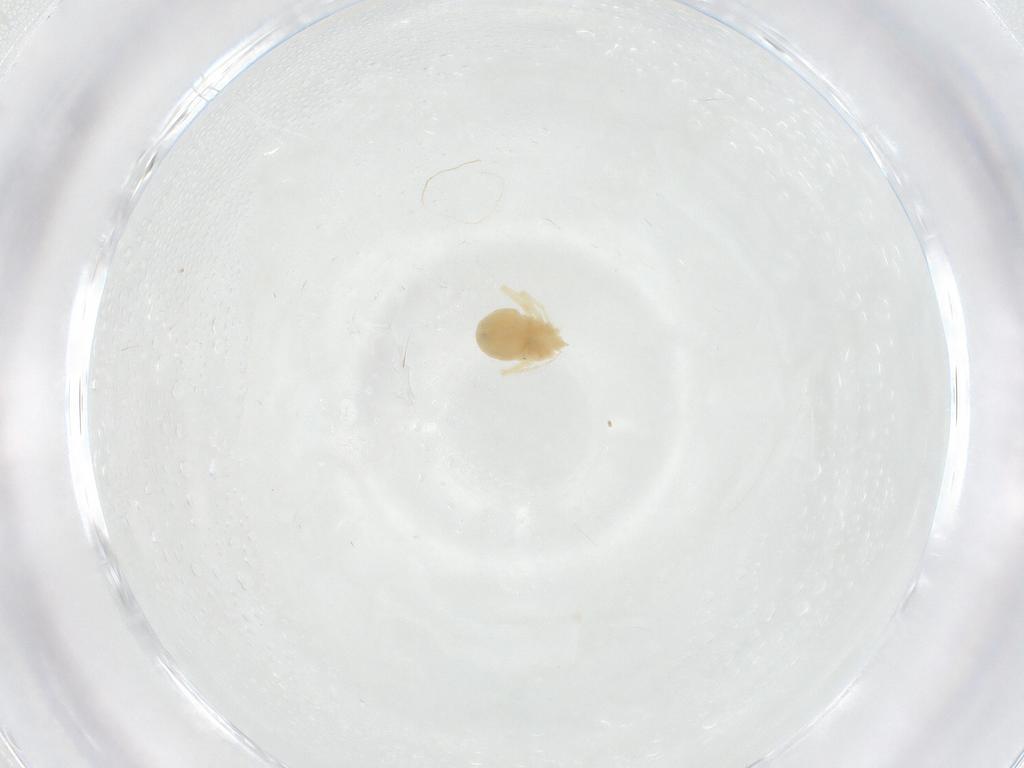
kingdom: Animalia
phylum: Arthropoda
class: Arachnida
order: Trombidiformes
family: Anystidae
